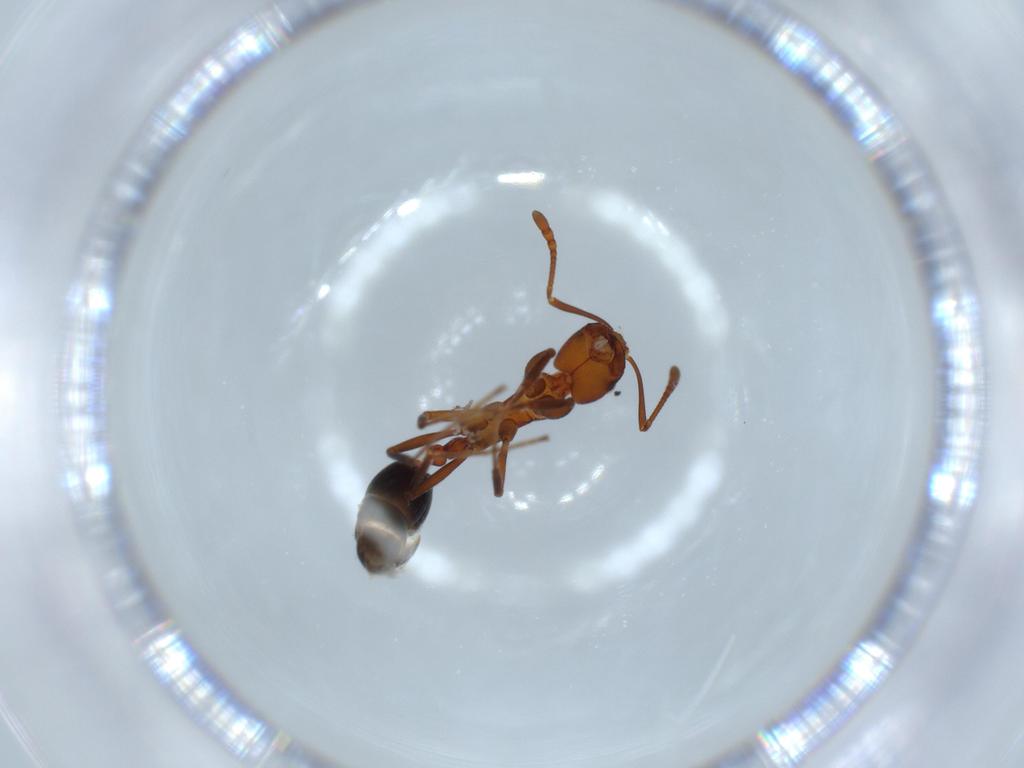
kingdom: Animalia
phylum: Arthropoda
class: Insecta
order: Hymenoptera
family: Formicidae
